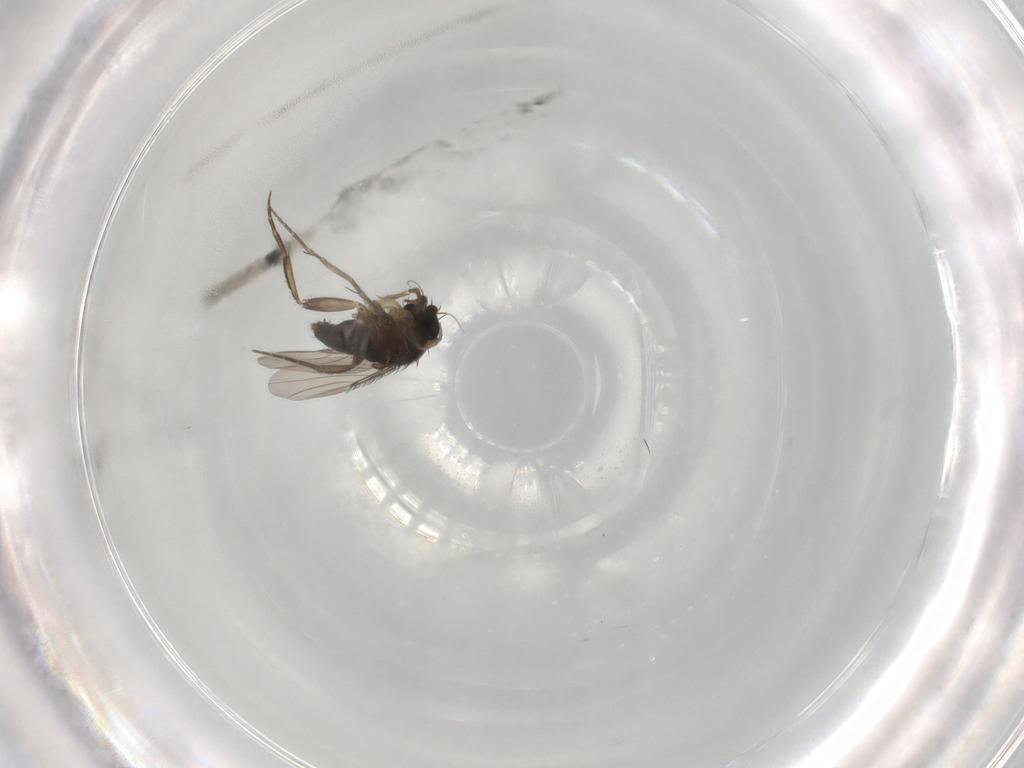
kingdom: Animalia
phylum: Arthropoda
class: Insecta
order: Diptera
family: Phoridae
